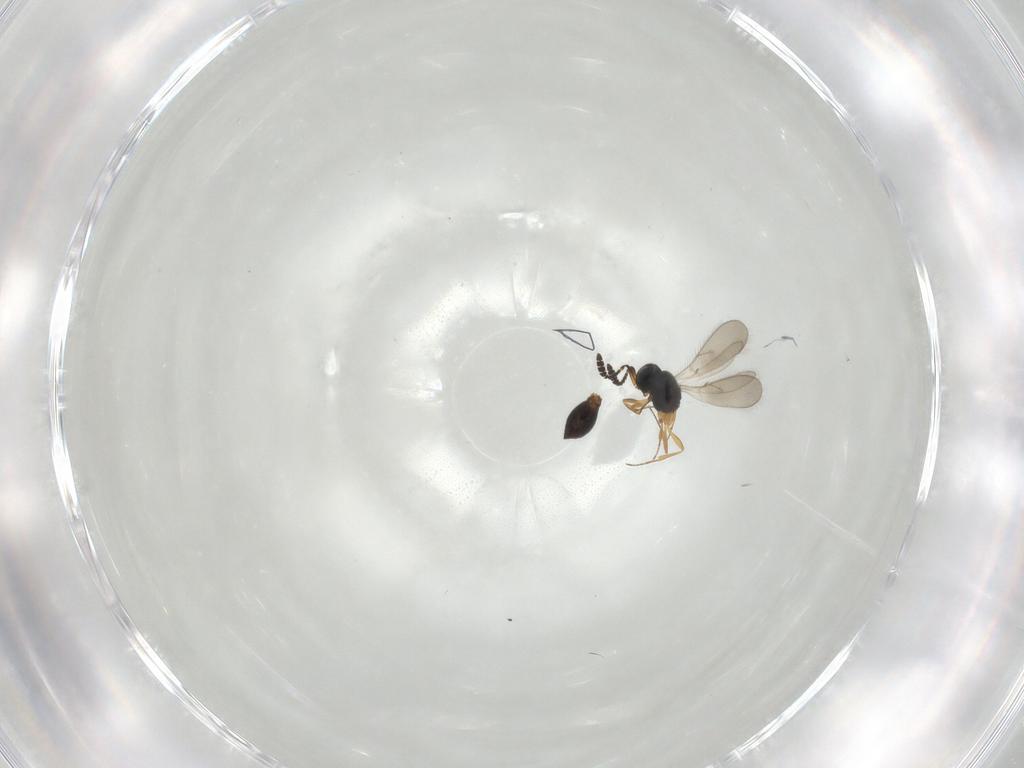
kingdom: Animalia
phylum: Arthropoda
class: Insecta
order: Hymenoptera
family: Scelionidae
